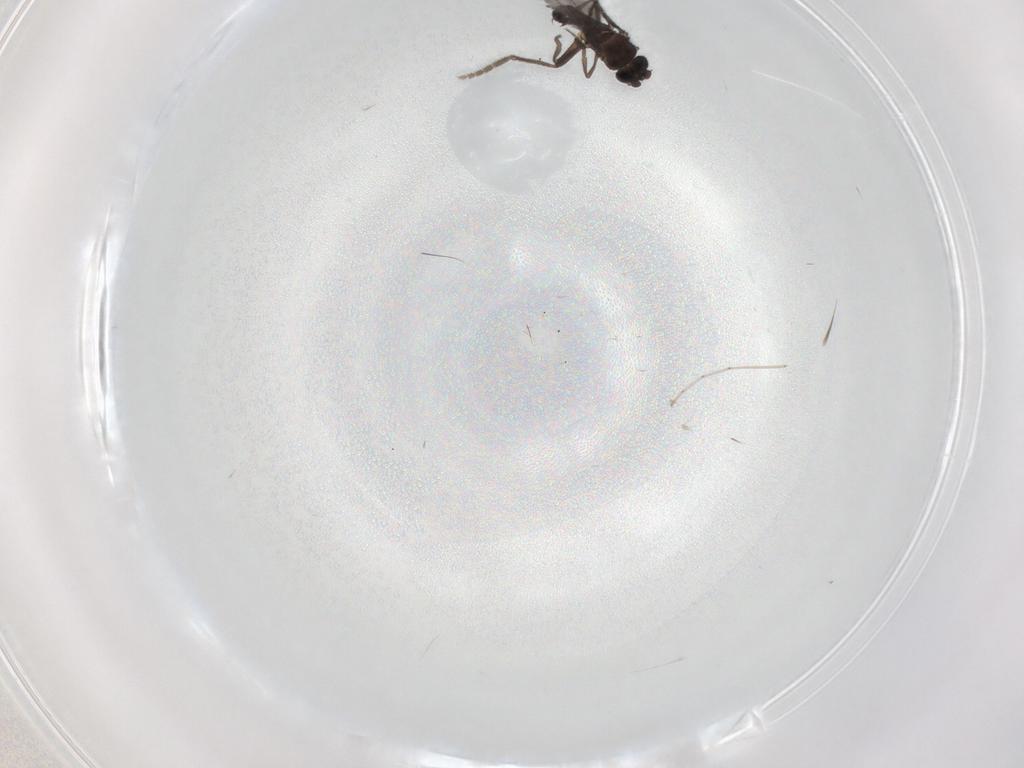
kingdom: Animalia
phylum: Arthropoda
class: Insecta
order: Diptera
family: Phoridae
